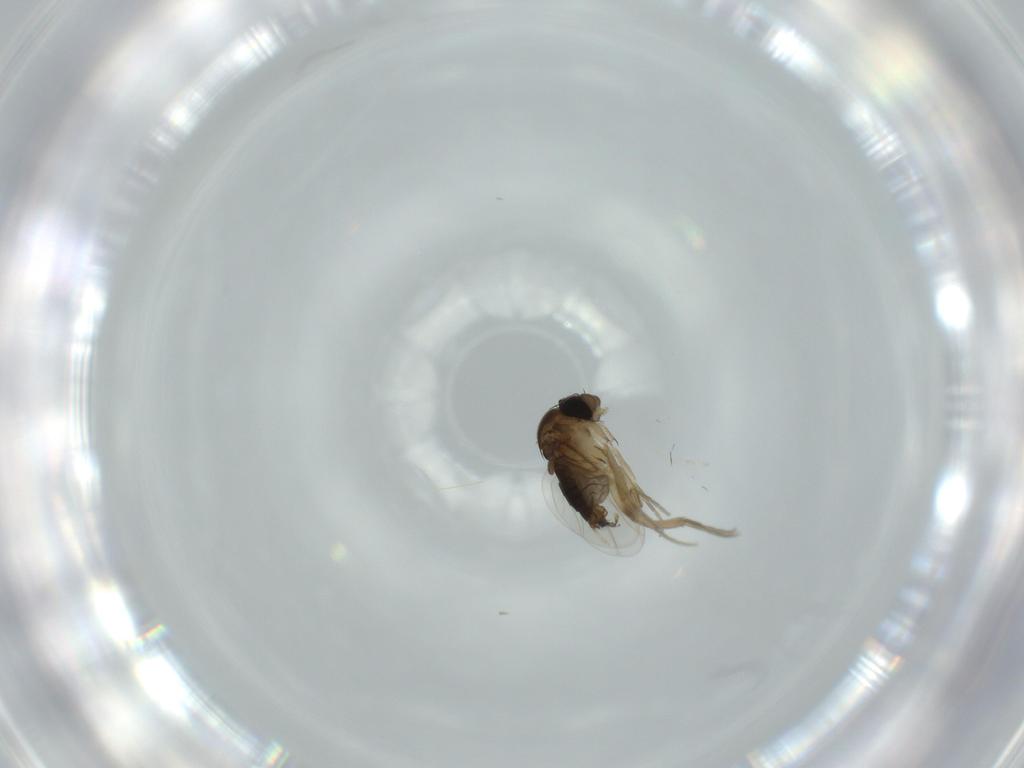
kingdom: Animalia
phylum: Arthropoda
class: Insecta
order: Diptera
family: Phoridae
